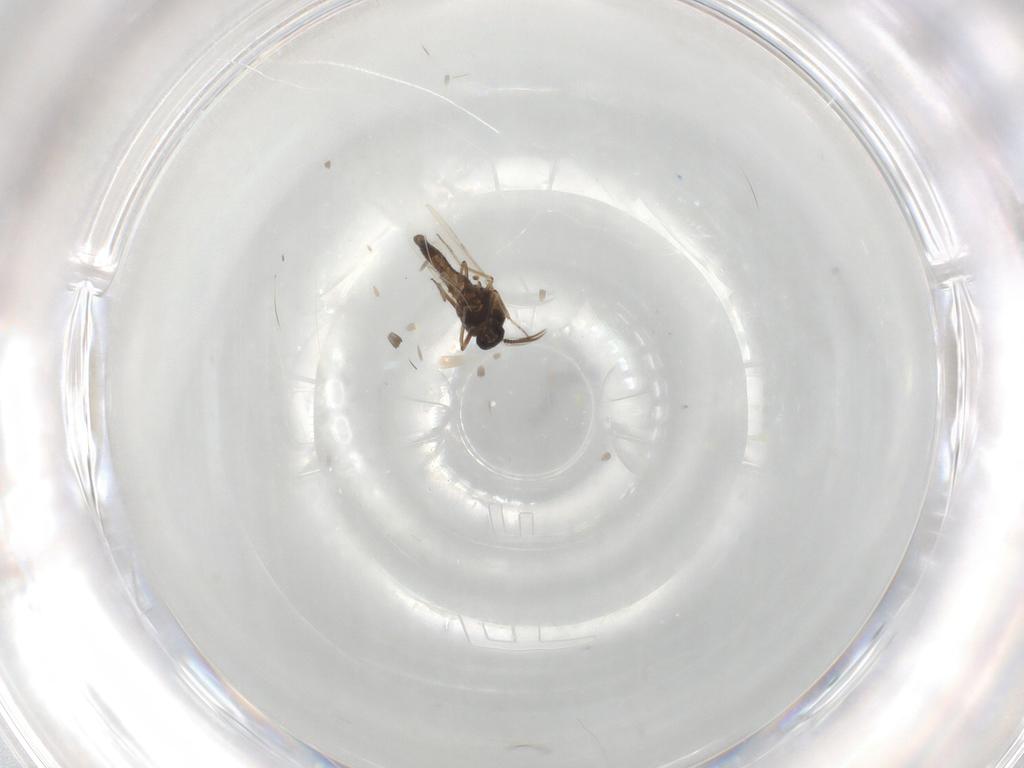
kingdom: Animalia
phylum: Arthropoda
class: Insecta
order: Diptera
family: Ceratopogonidae
